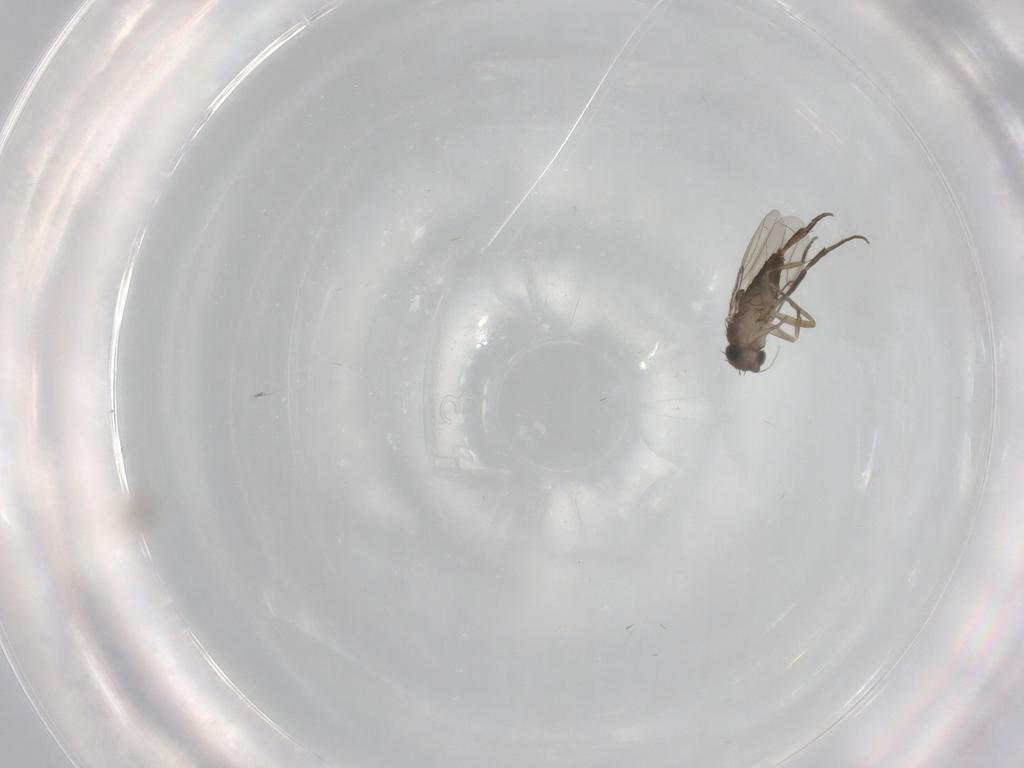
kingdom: Animalia
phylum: Arthropoda
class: Insecta
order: Diptera
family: Phoridae
